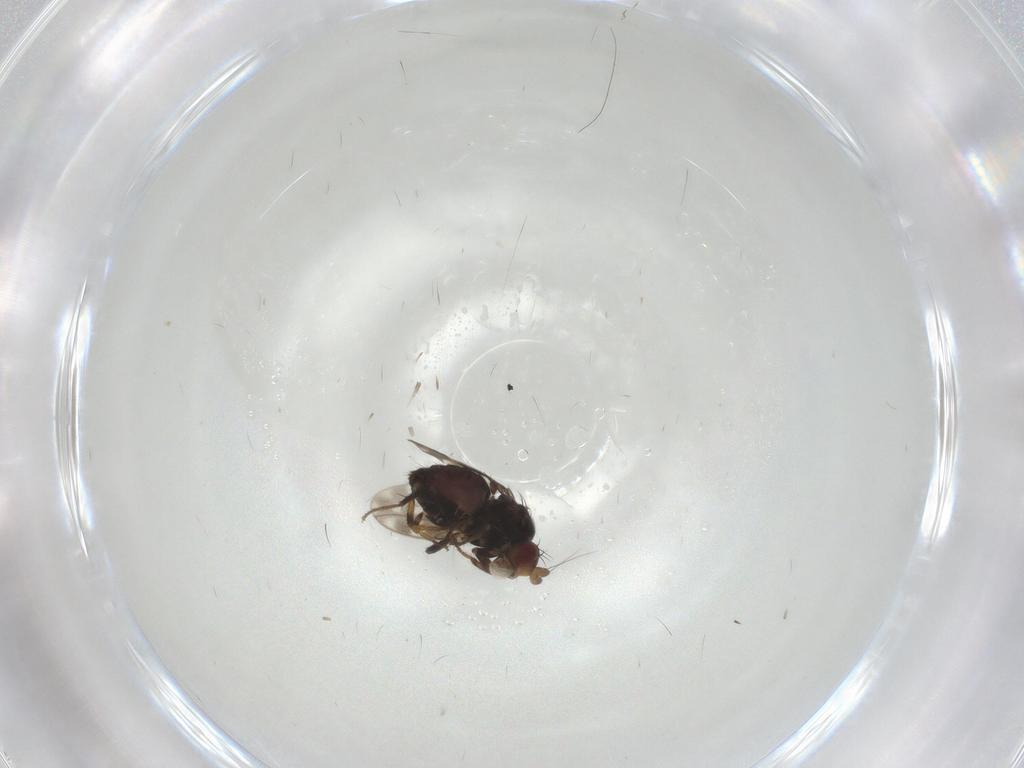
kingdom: Animalia
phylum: Arthropoda
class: Insecta
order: Diptera
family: Sphaeroceridae
